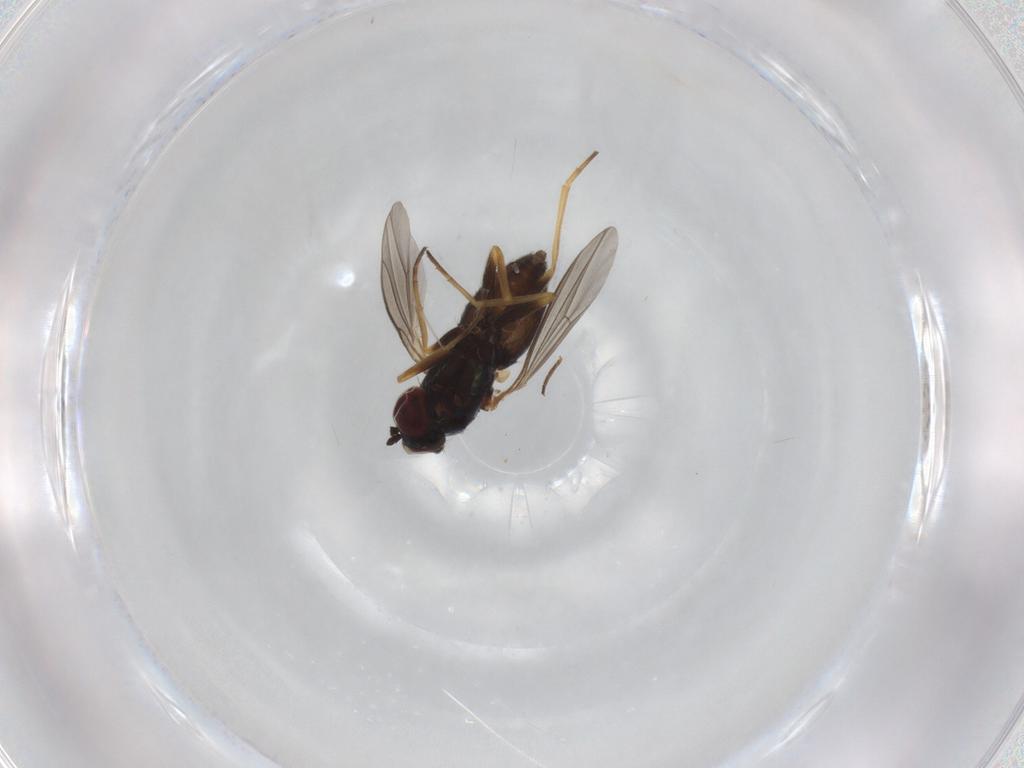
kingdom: Animalia
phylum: Arthropoda
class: Insecta
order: Diptera
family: Dolichopodidae
